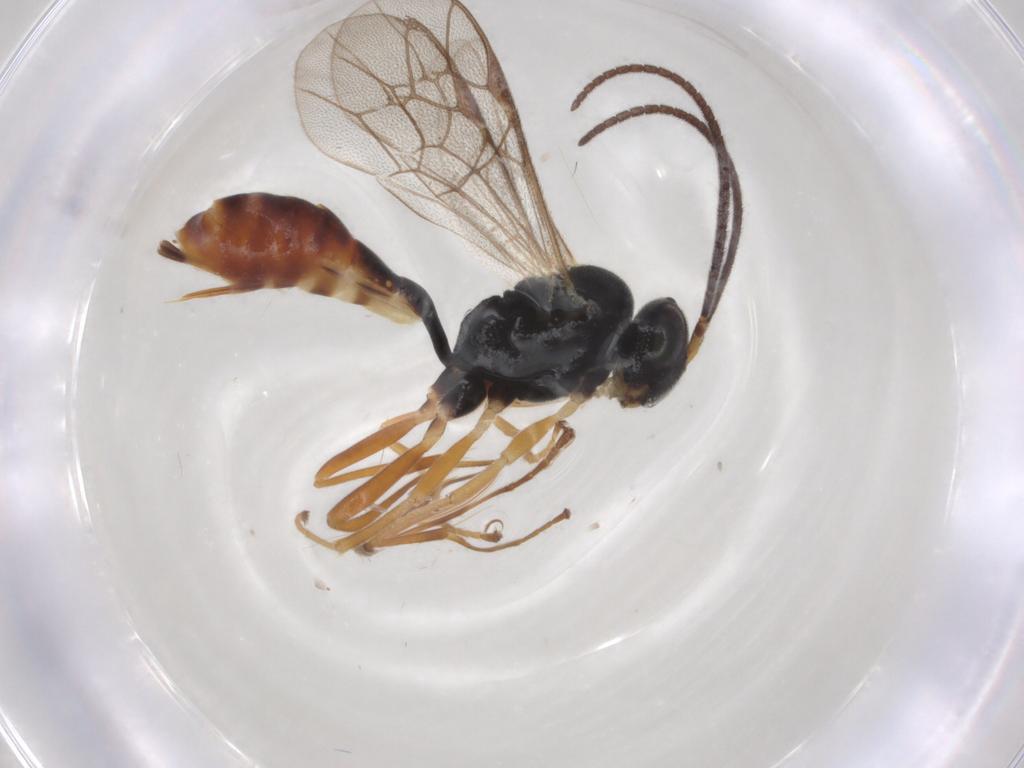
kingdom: Animalia
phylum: Arthropoda
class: Insecta
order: Hymenoptera
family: Ichneumonidae
